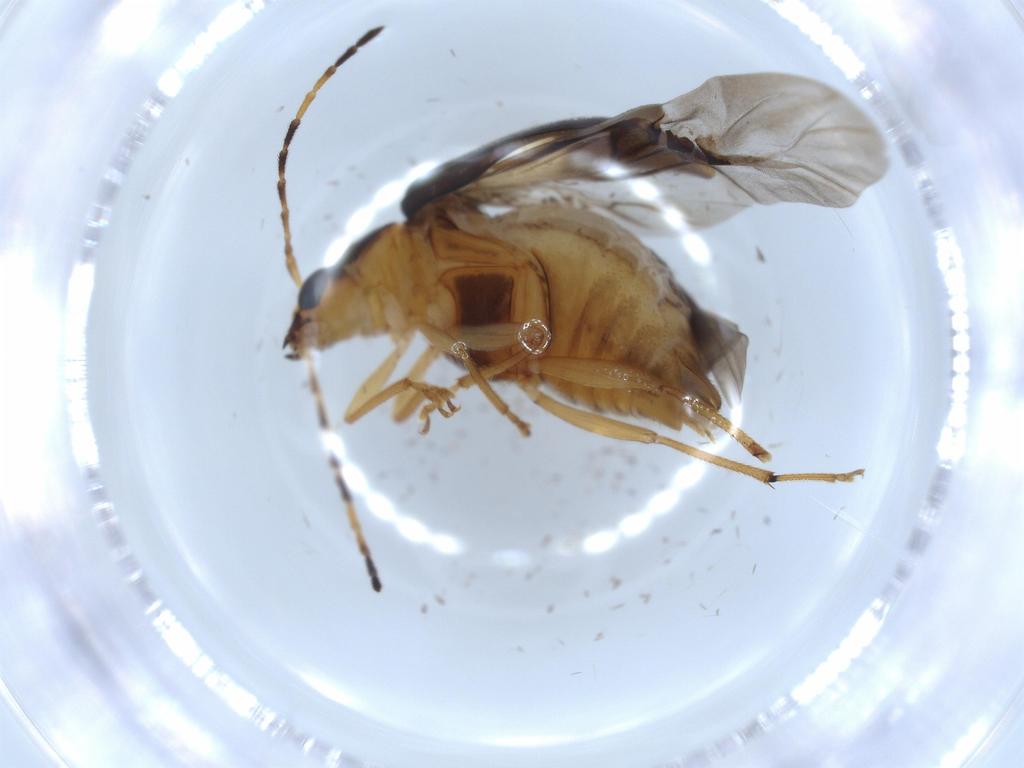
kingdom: Animalia
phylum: Arthropoda
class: Insecta
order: Coleoptera
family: Chrysomelidae
